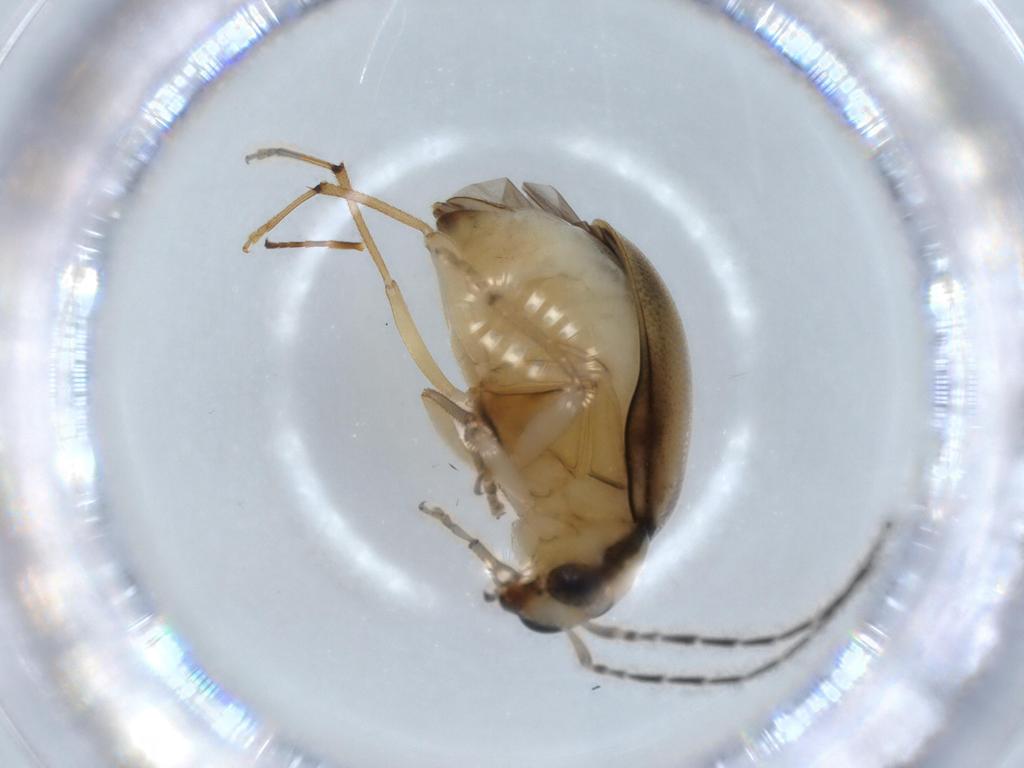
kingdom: Animalia
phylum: Arthropoda
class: Insecta
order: Coleoptera
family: Chrysomelidae
